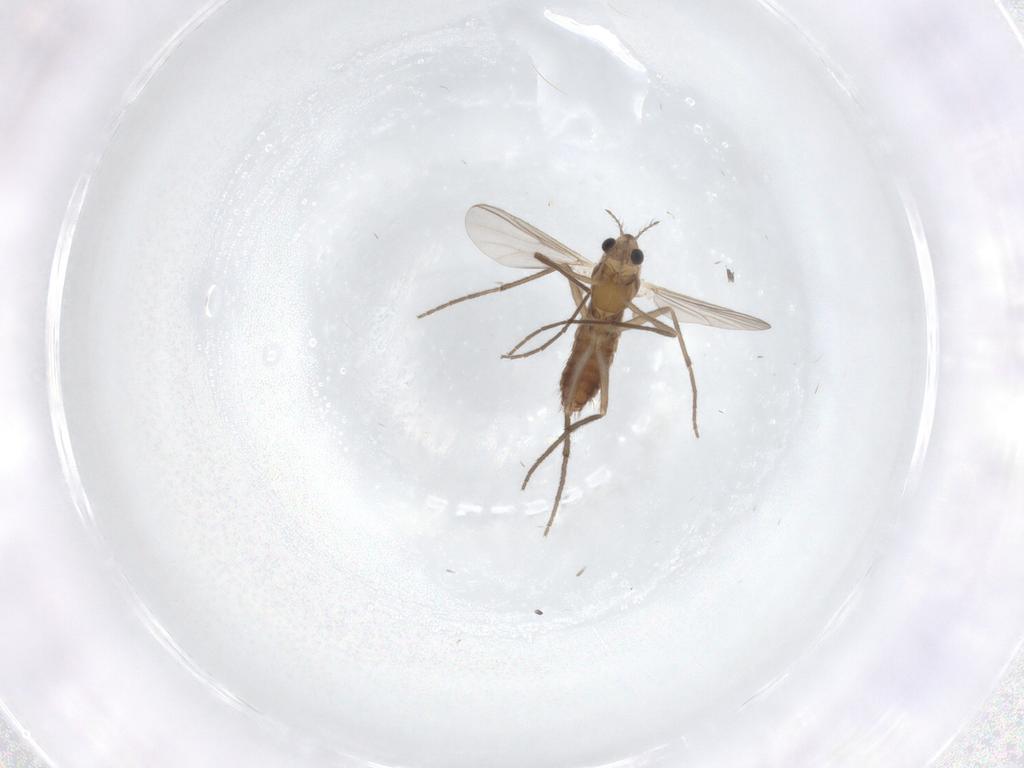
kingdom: Animalia
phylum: Arthropoda
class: Insecta
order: Diptera
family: Chironomidae
